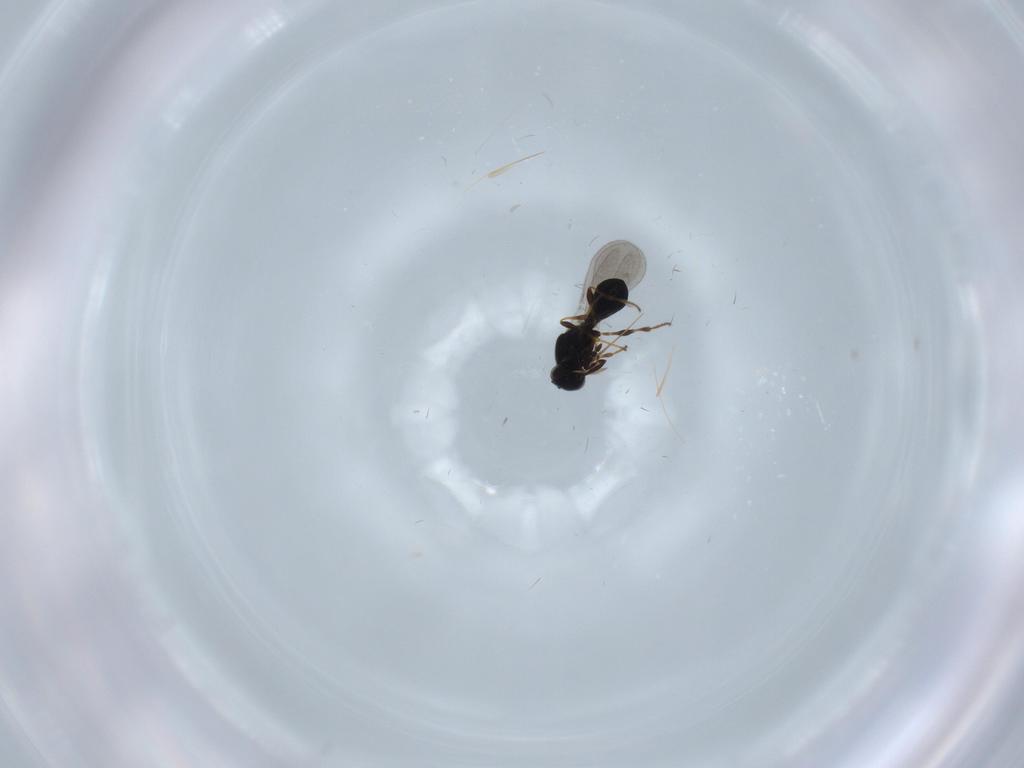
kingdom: Animalia
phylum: Arthropoda
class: Insecta
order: Hymenoptera
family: Platygastridae
